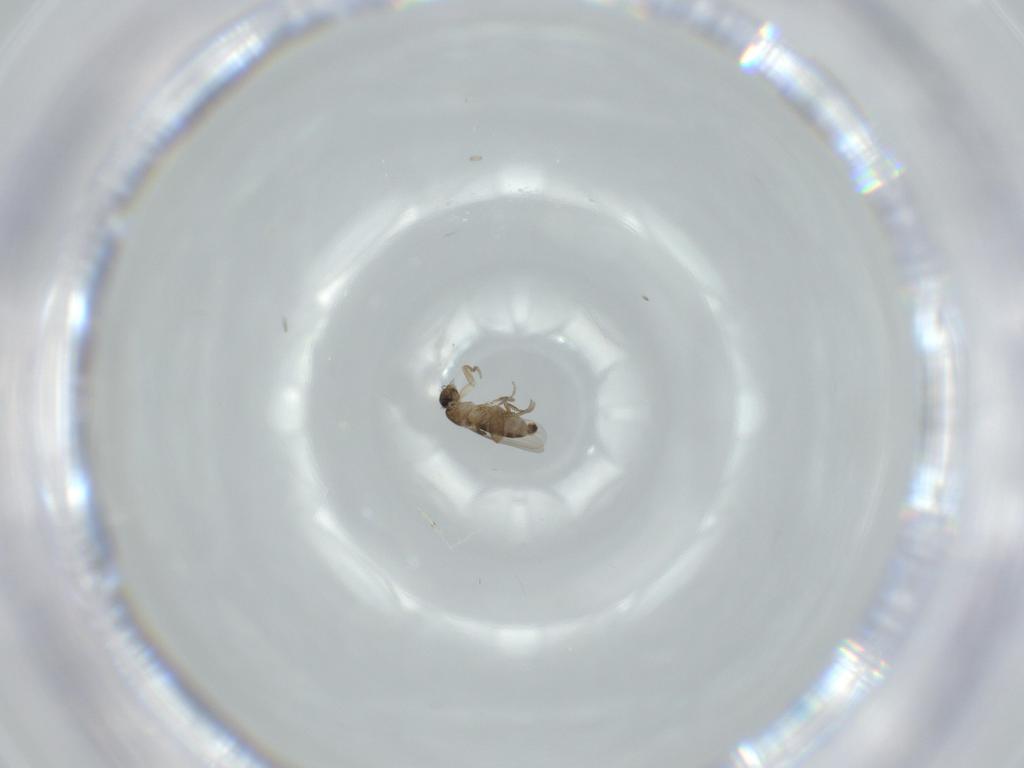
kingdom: Animalia
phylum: Arthropoda
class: Insecta
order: Diptera
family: Phoridae
